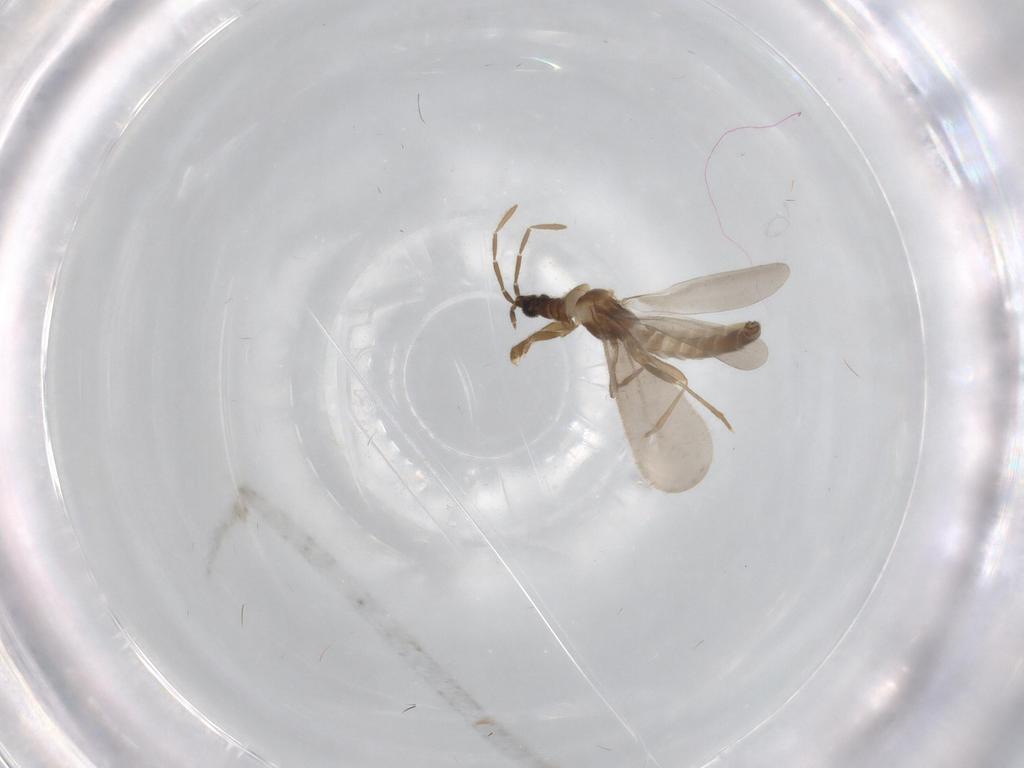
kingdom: Animalia
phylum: Arthropoda
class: Insecta
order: Hemiptera
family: Enicocephalidae
